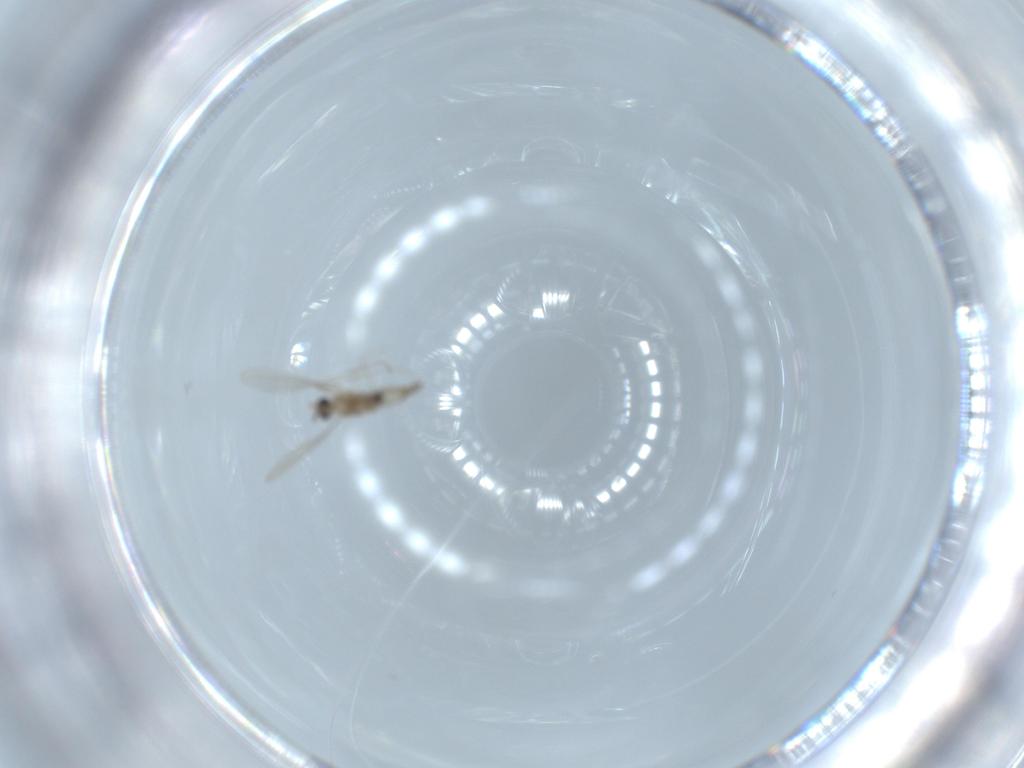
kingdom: Animalia
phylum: Arthropoda
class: Insecta
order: Diptera
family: Cecidomyiidae
